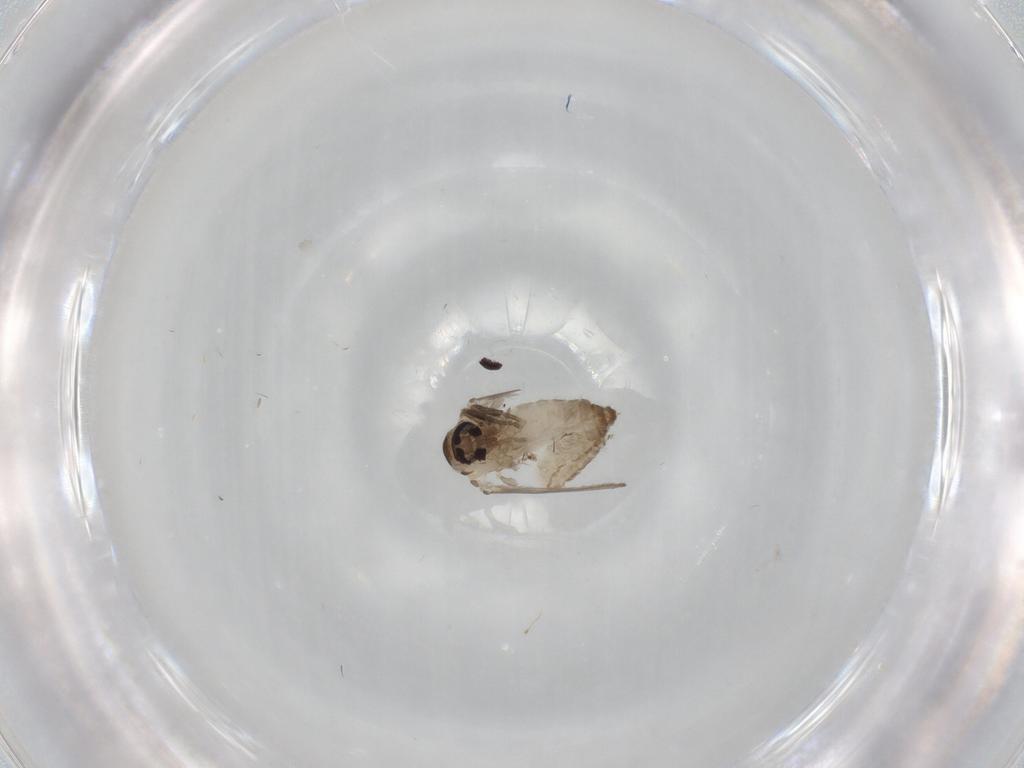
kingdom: Animalia
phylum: Arthropoda
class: Insecta
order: Diptera
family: Psychodidae
